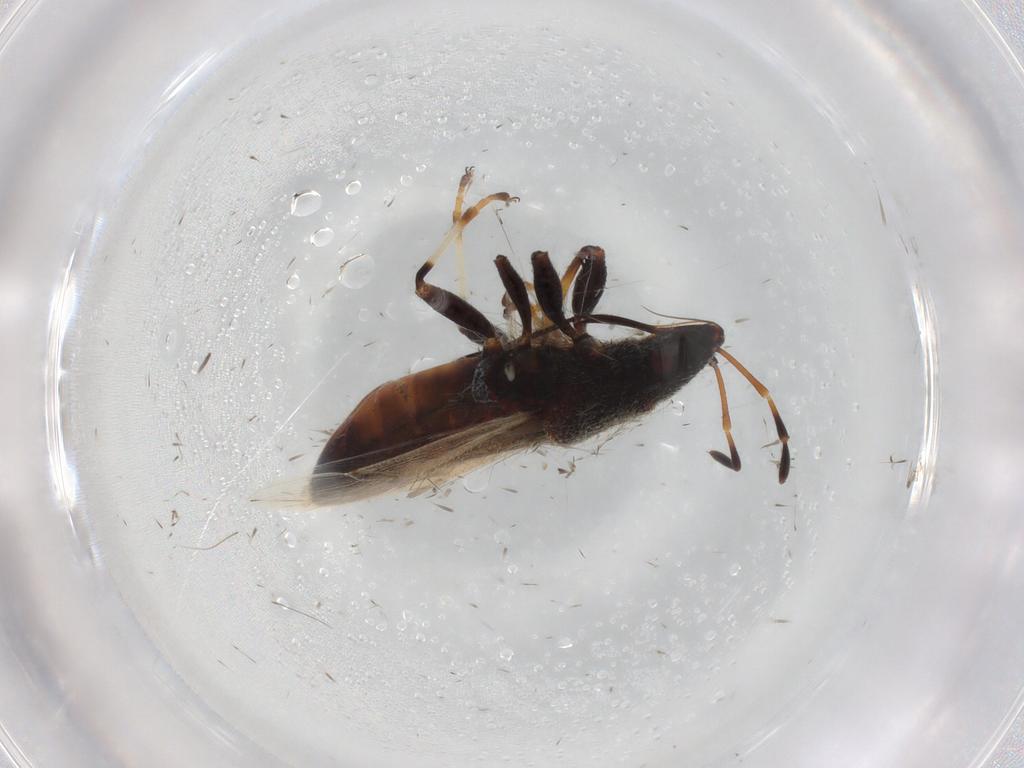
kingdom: Animalia
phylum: Arthropoda
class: Insecta
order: Hemiptera
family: Oxycarenidae
